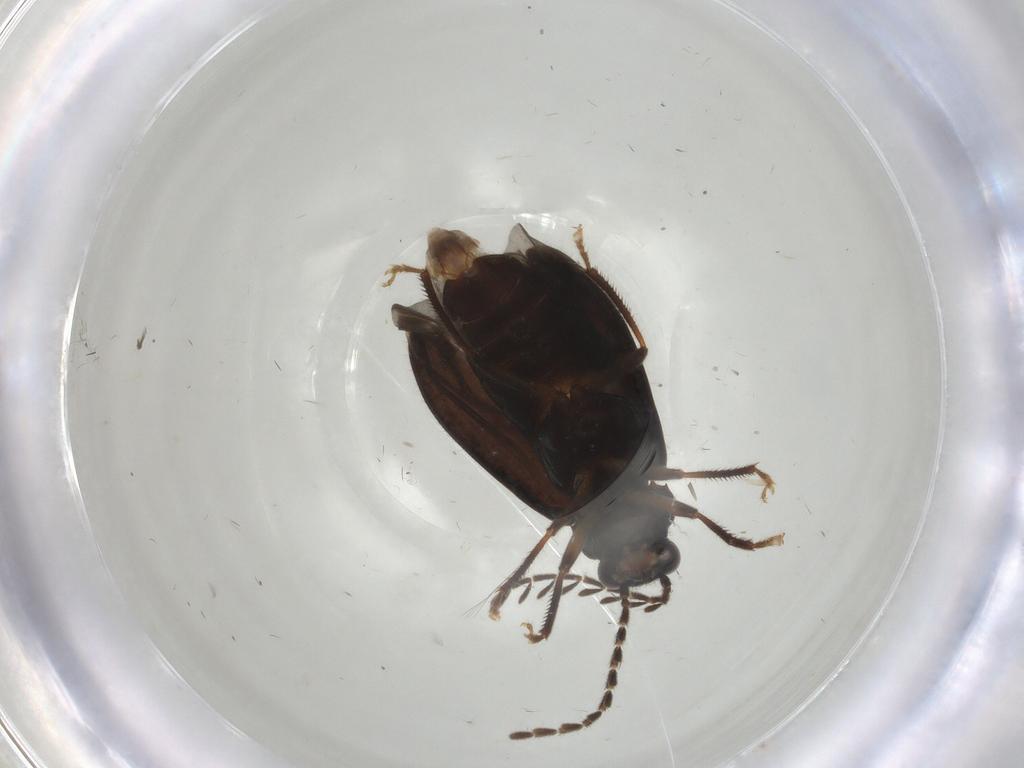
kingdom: Animalia
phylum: Arthropoda
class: Insecta
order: Coleoptera
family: Ptilodactylidae
